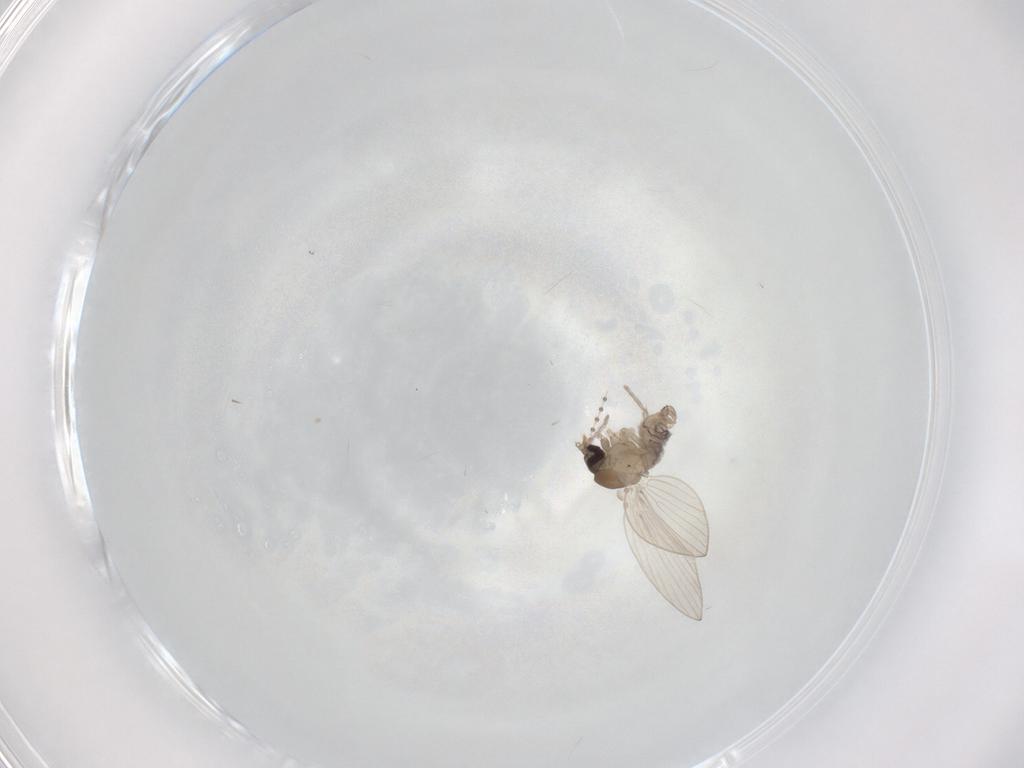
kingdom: Animalia
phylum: Arthropoda
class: Insecta
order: Diptera
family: Psychodidae
